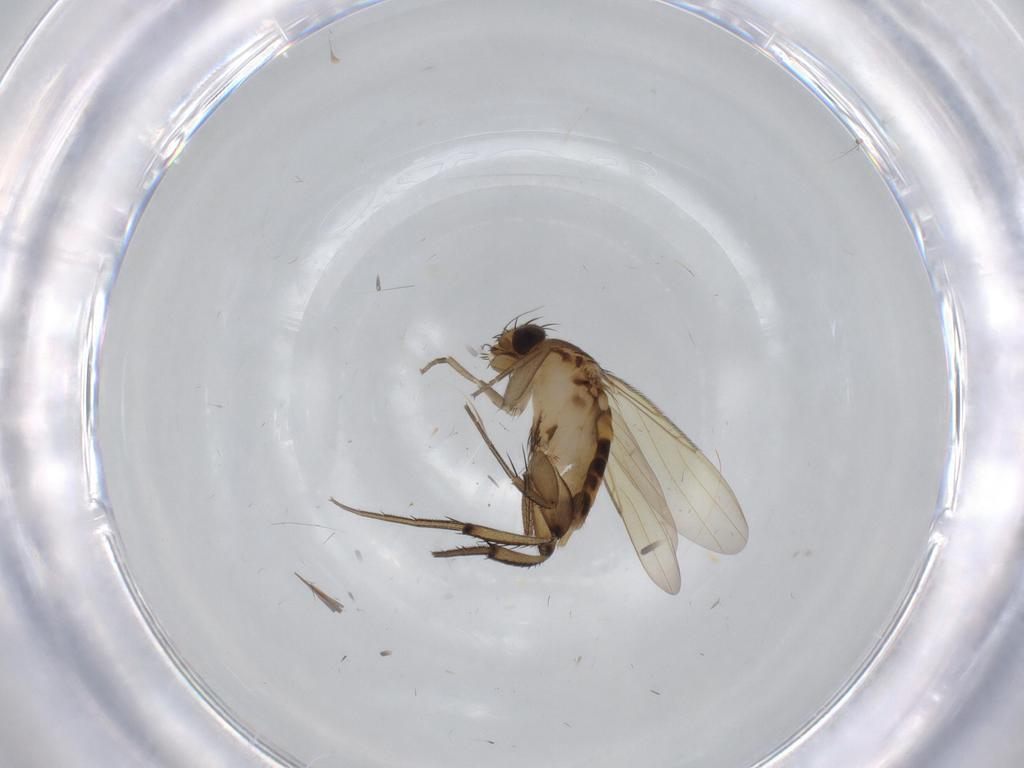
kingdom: Animalia
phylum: Arthropoda
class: Insecta
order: Diptera
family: Phoridae
